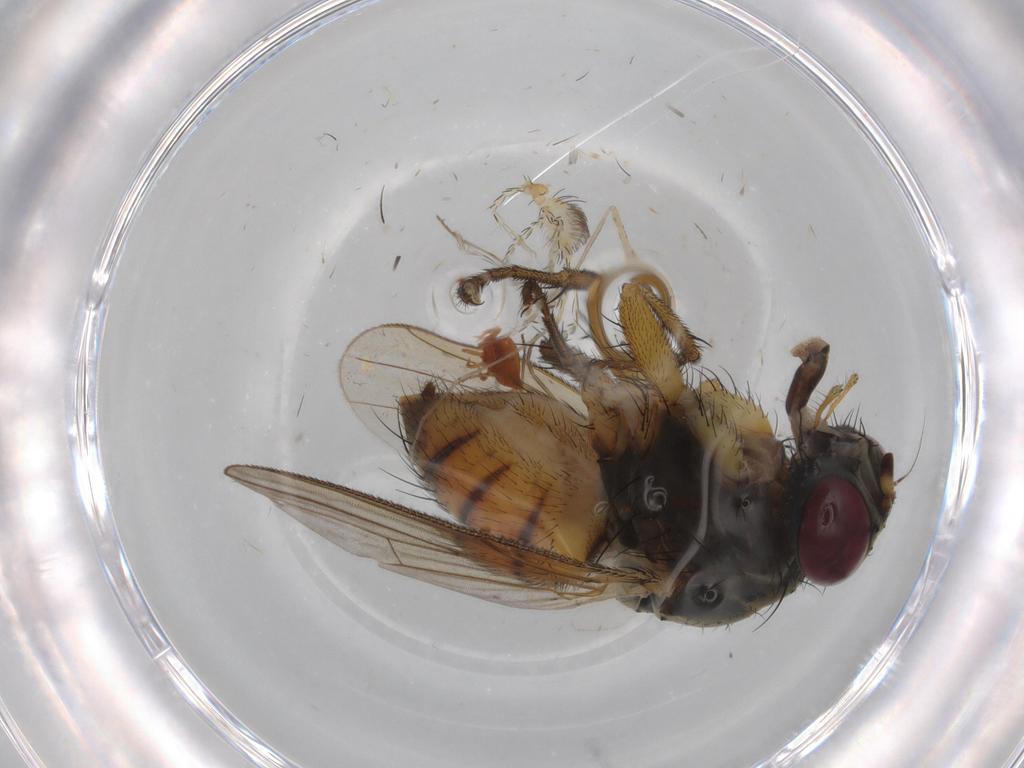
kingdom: Animalia
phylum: Arthropoda
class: Insecta
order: Diptera
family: Muscidae
